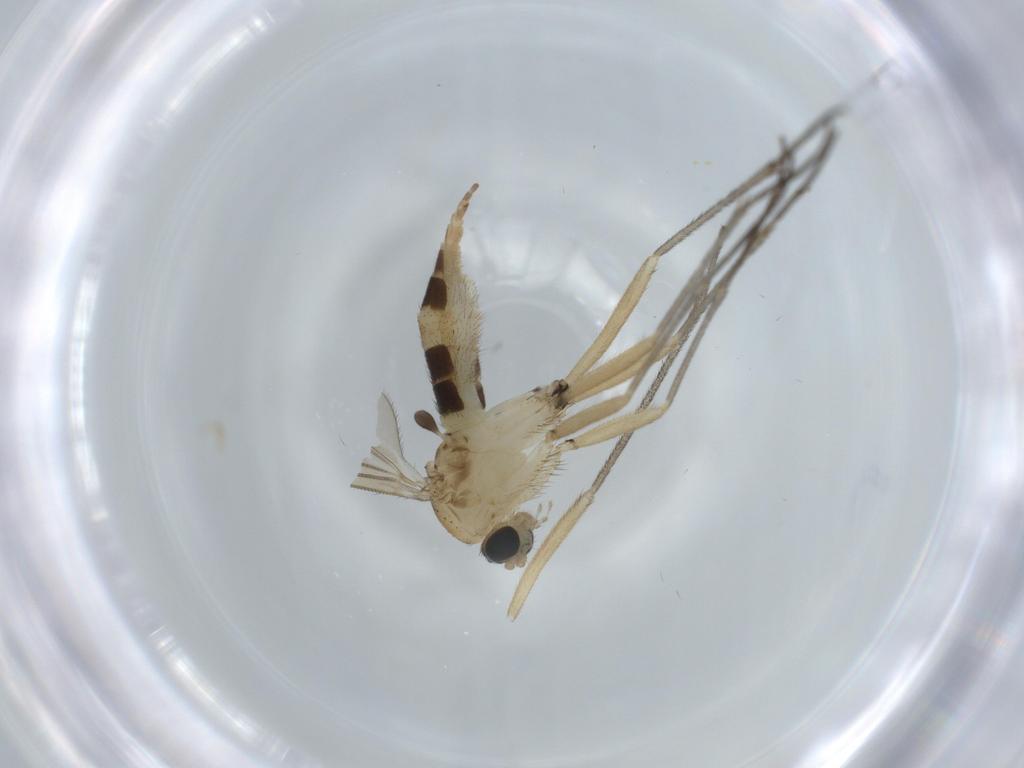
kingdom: Animalia
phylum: Arthropoda
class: Insecta
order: Diptera
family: Sciaridae
